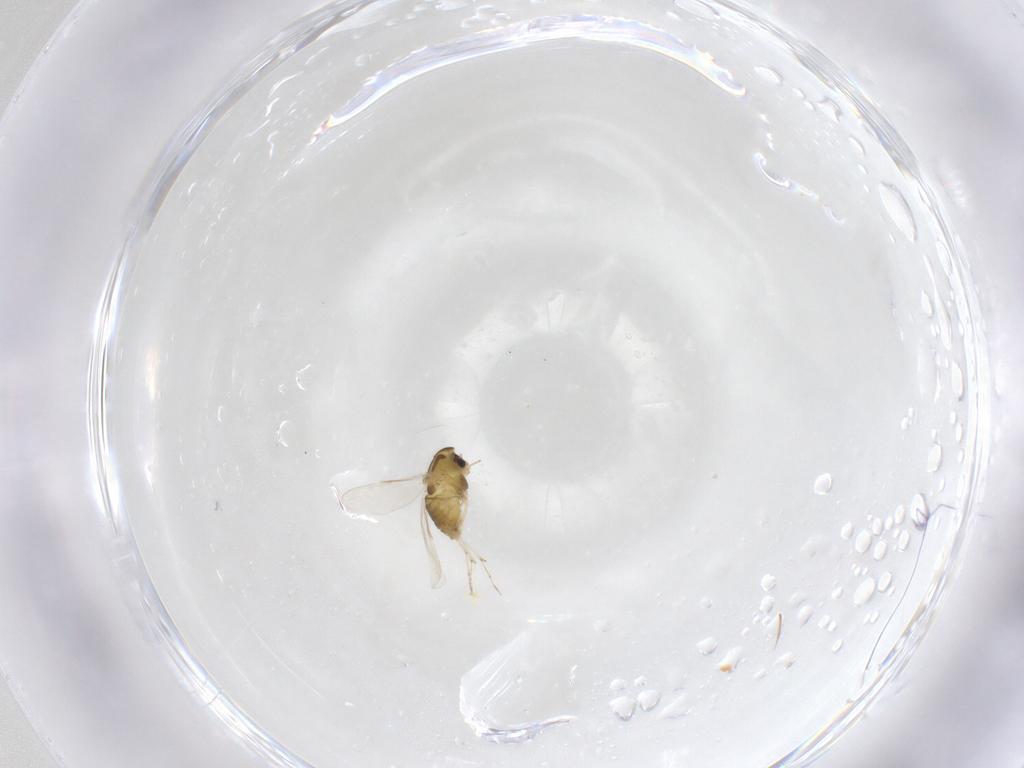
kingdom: Animalia
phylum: Arthropoda
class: Insecta
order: Diptera
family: Chironomidae
